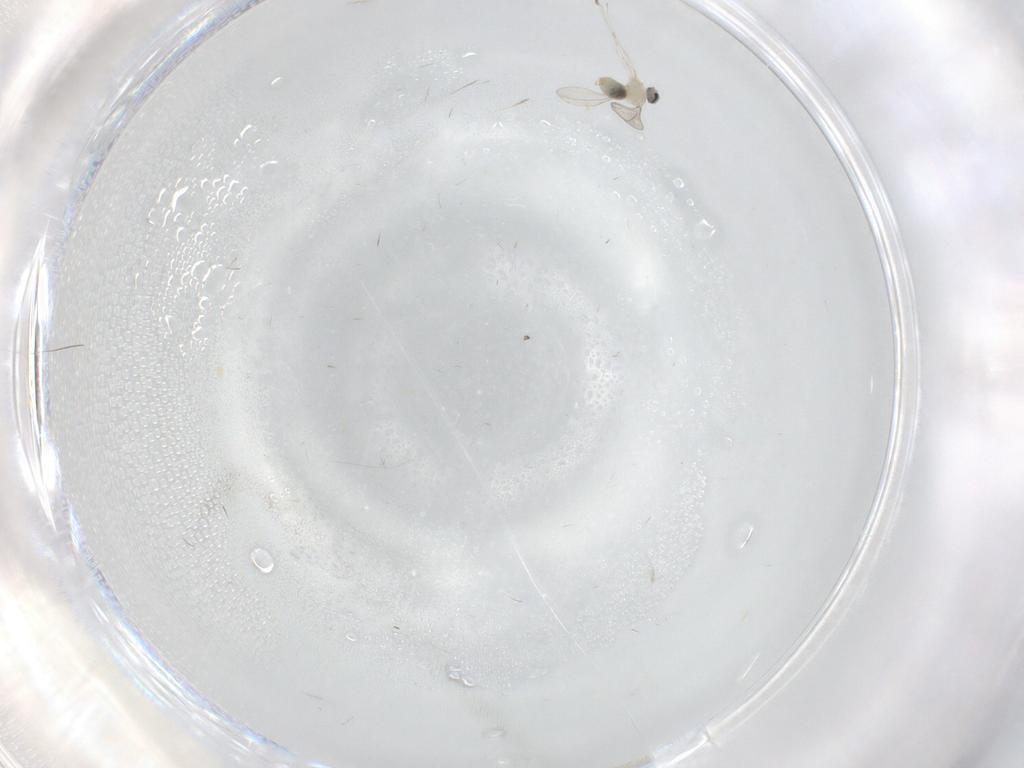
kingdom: Animalia
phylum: Arthropoda
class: Insecta
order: Diptera
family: Cecidomyiidae
